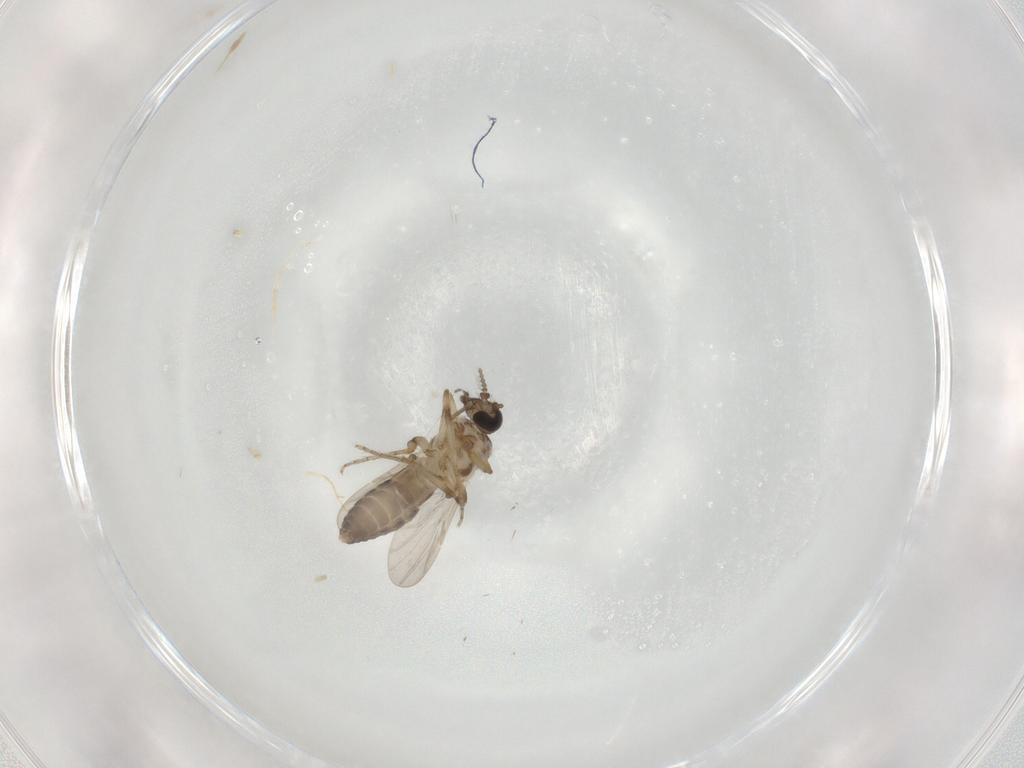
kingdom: Animalia
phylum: Arthropoda
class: Insecta
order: Diptera
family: Ceratopogonidae
